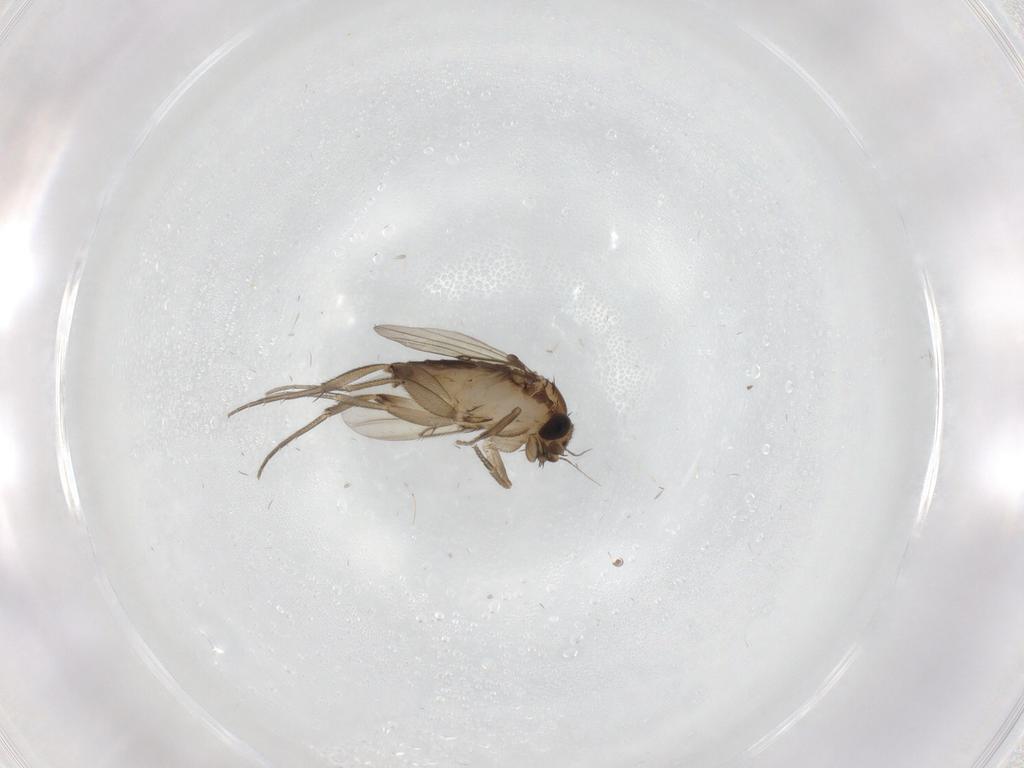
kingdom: Animalia
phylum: Arthropoda
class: Insecta
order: Diptera
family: Phoridae
